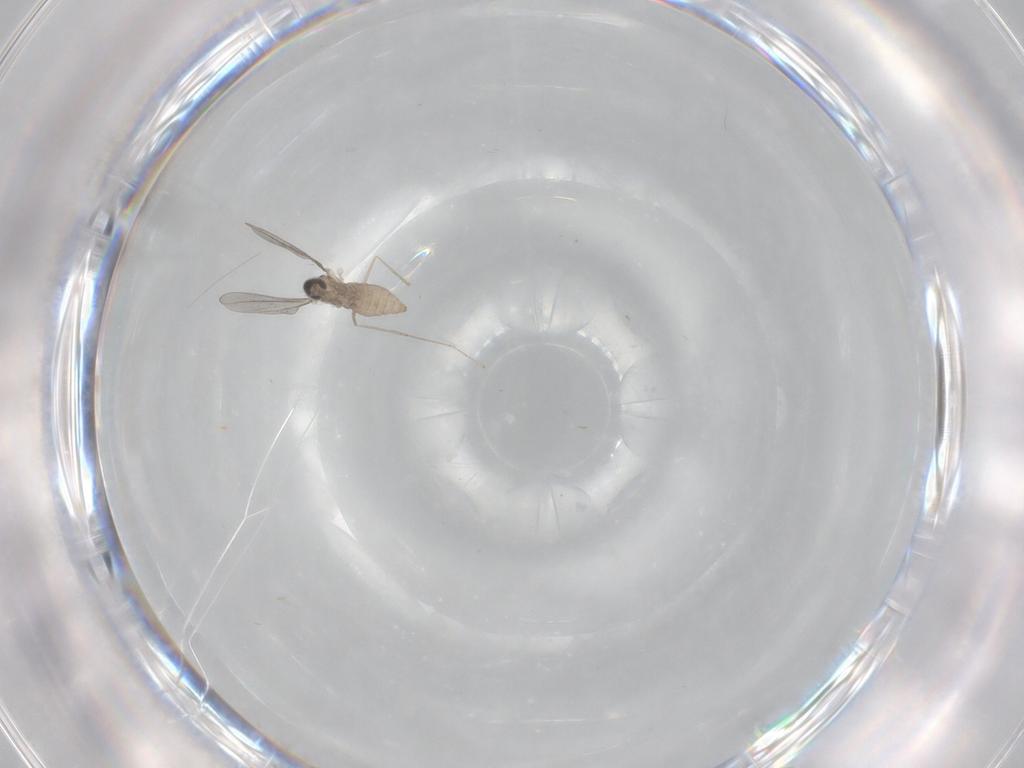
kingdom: Animalia
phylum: Arthropoda
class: Insecta
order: Diptera
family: Cecidomyiidae
